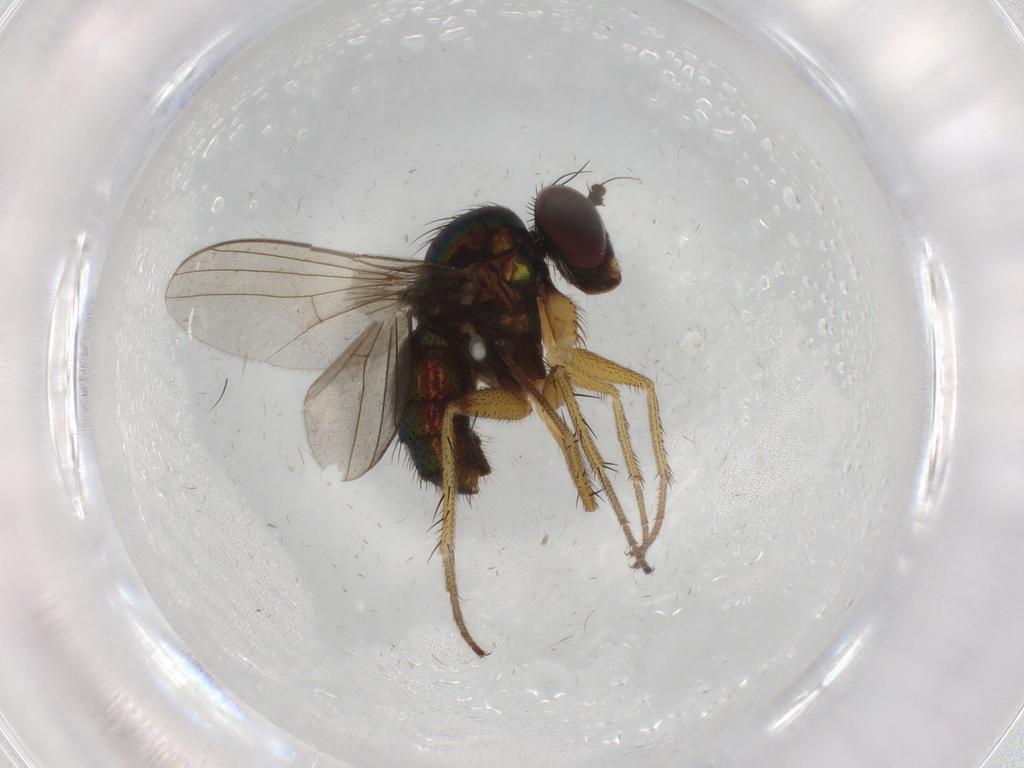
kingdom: Animalia
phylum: Arthropoda
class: Insecta
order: Diptera
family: Dolichopodidae
